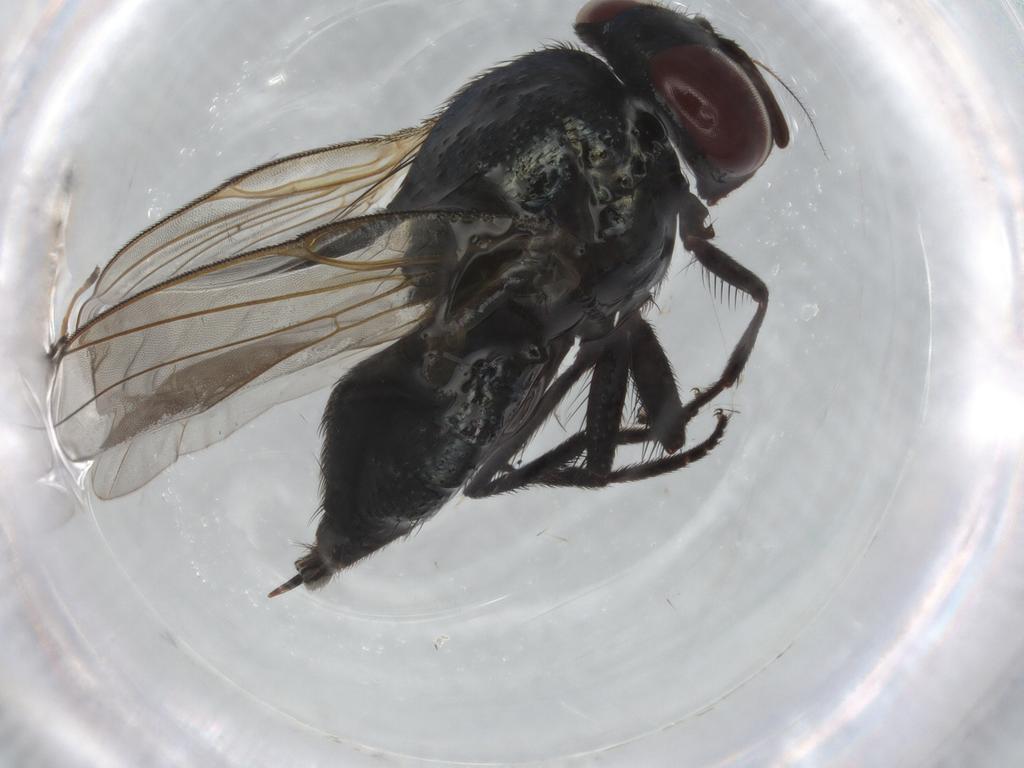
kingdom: Animalia
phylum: Arthropoda
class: Insecta
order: Diptera
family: Lonchaeidae
